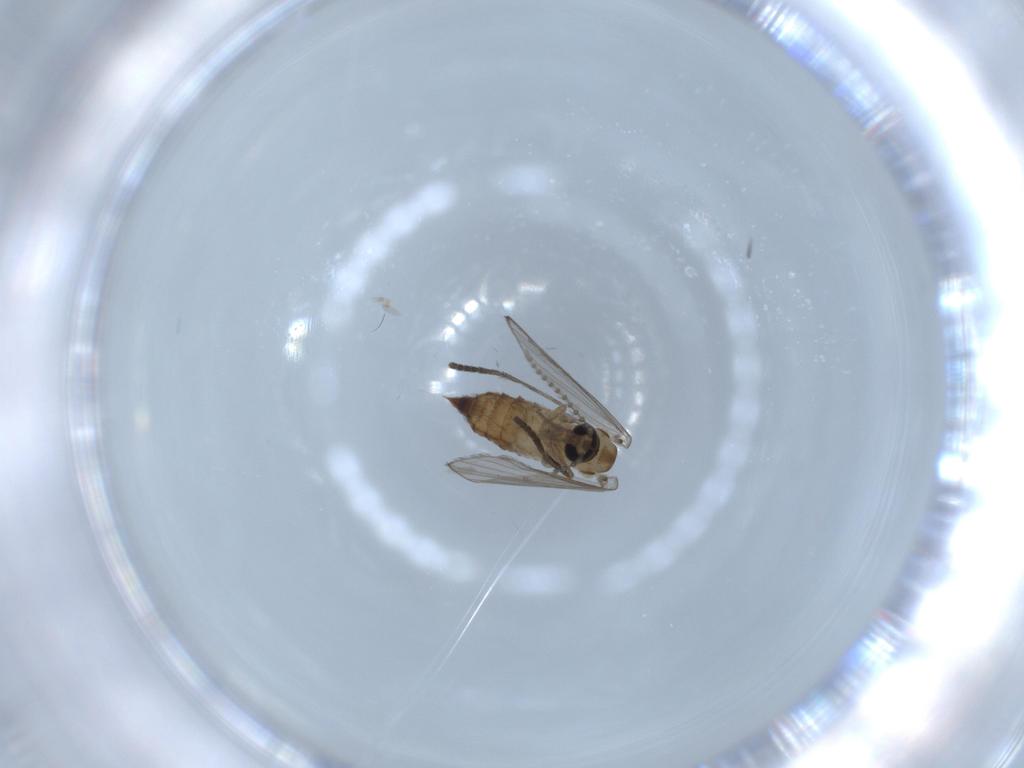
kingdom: Animalia
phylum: Arthropoda
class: Insecta
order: Diptera
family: Psychodidae
